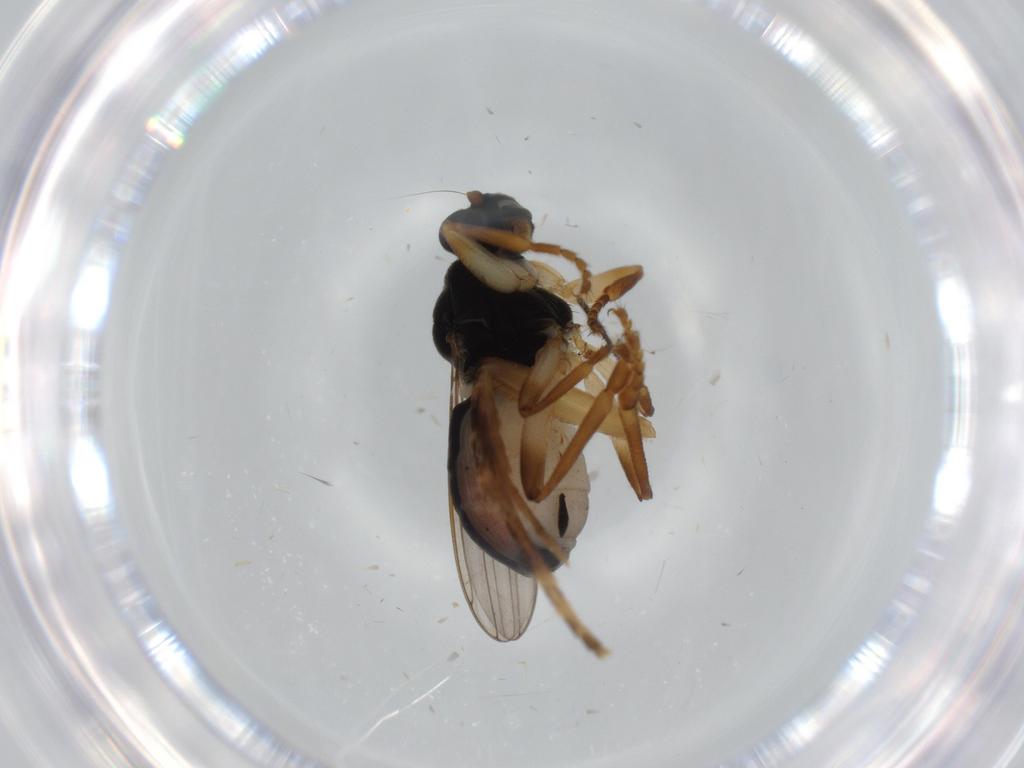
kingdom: Animalia
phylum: Arthropoda
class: Insecta
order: Diptera
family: Sphaeroceridae
